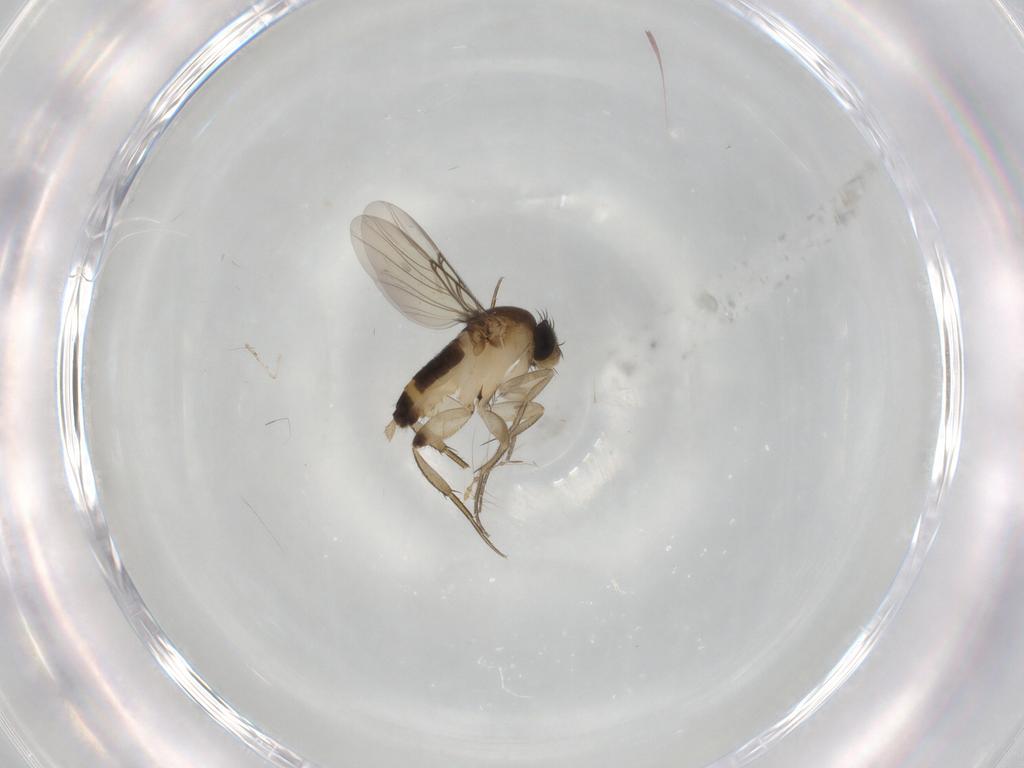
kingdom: Animalia
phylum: Arthropoda
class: Insecta
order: Diptera
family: Phoridae
